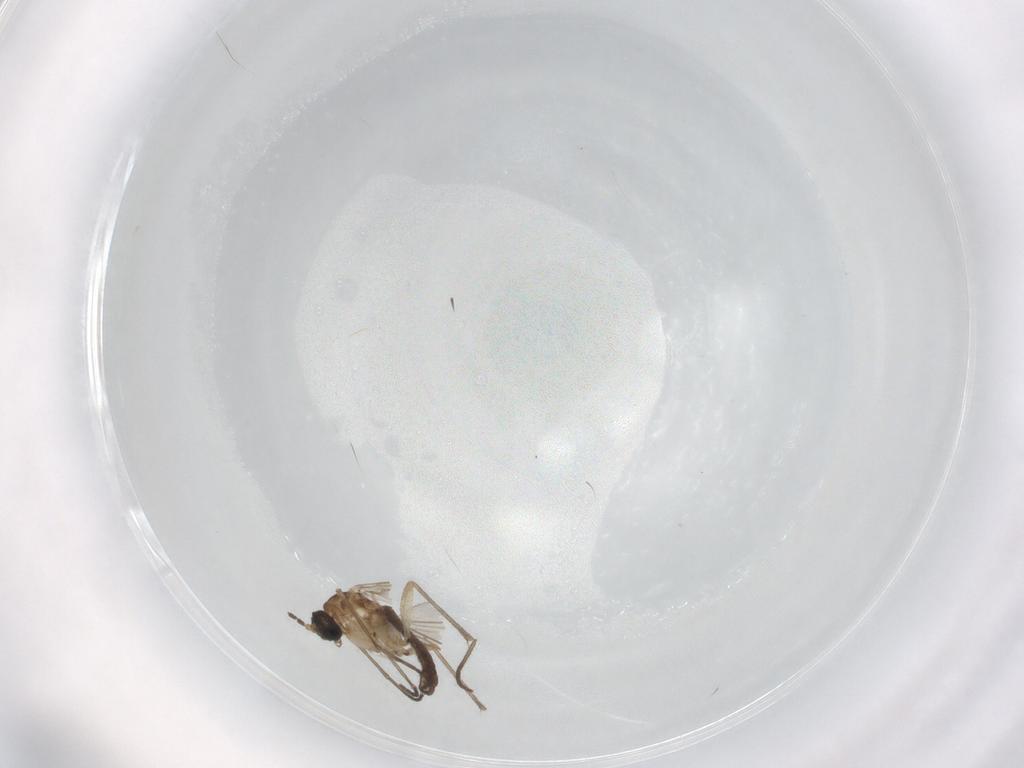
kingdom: Animalia
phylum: Arthropoda
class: Insecta
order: Diptera
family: Sciaridae
